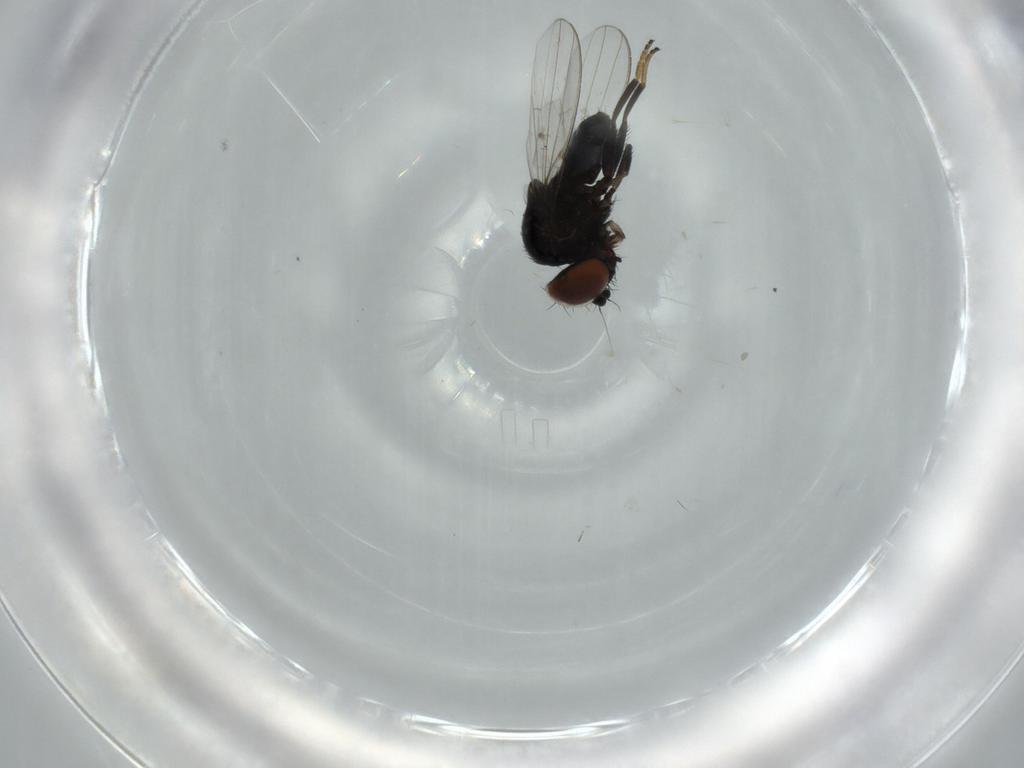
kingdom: Animalia
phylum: Arthropoda
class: Insecta
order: Diptera
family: Milichiidae
